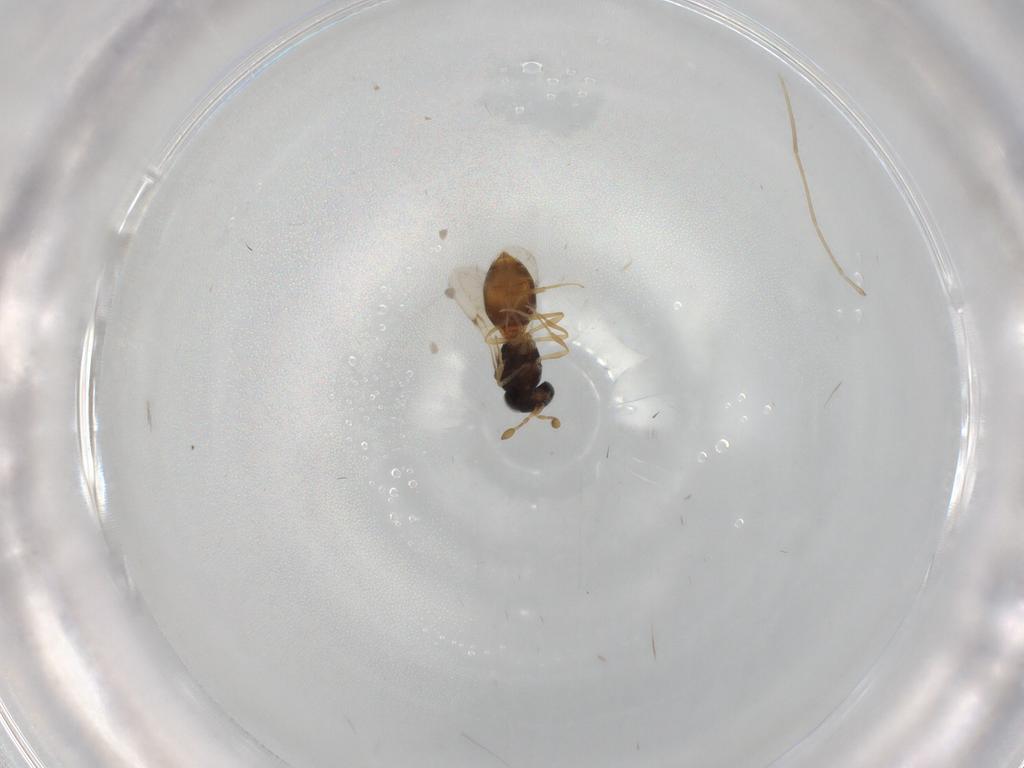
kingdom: Animalia
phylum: Arthropoda
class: Insecta
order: Hymenoptera
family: Scelionidae
